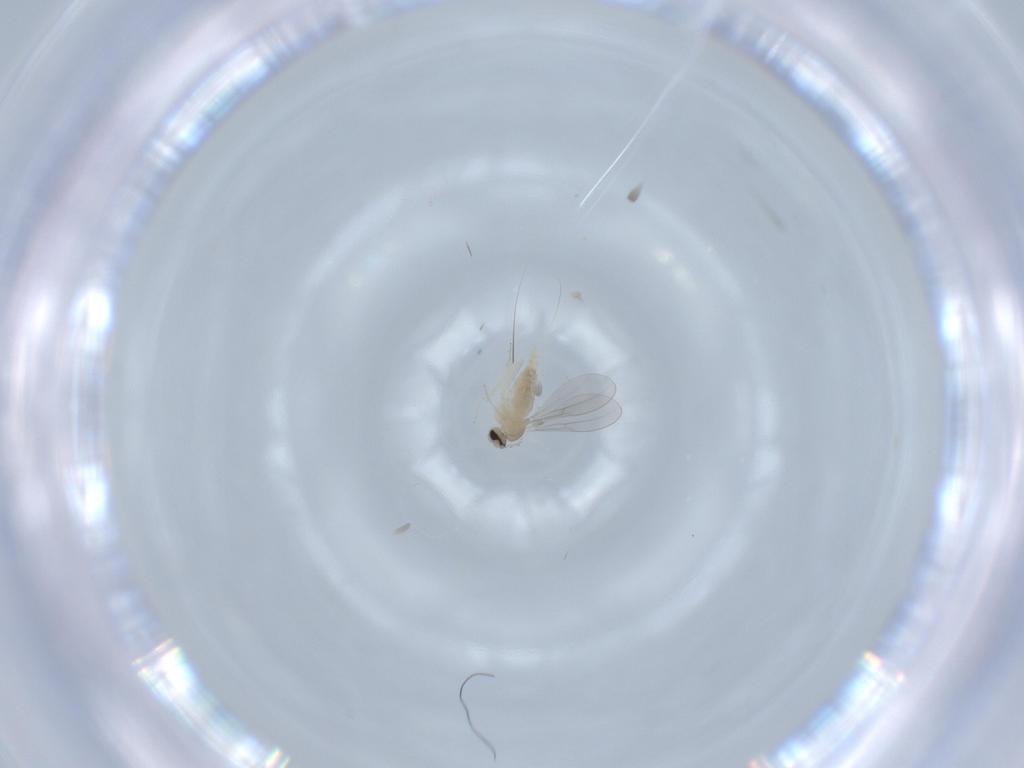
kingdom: Animalia
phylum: Arthropoda
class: Insecta
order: Diptera
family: Cecidomyiidae
